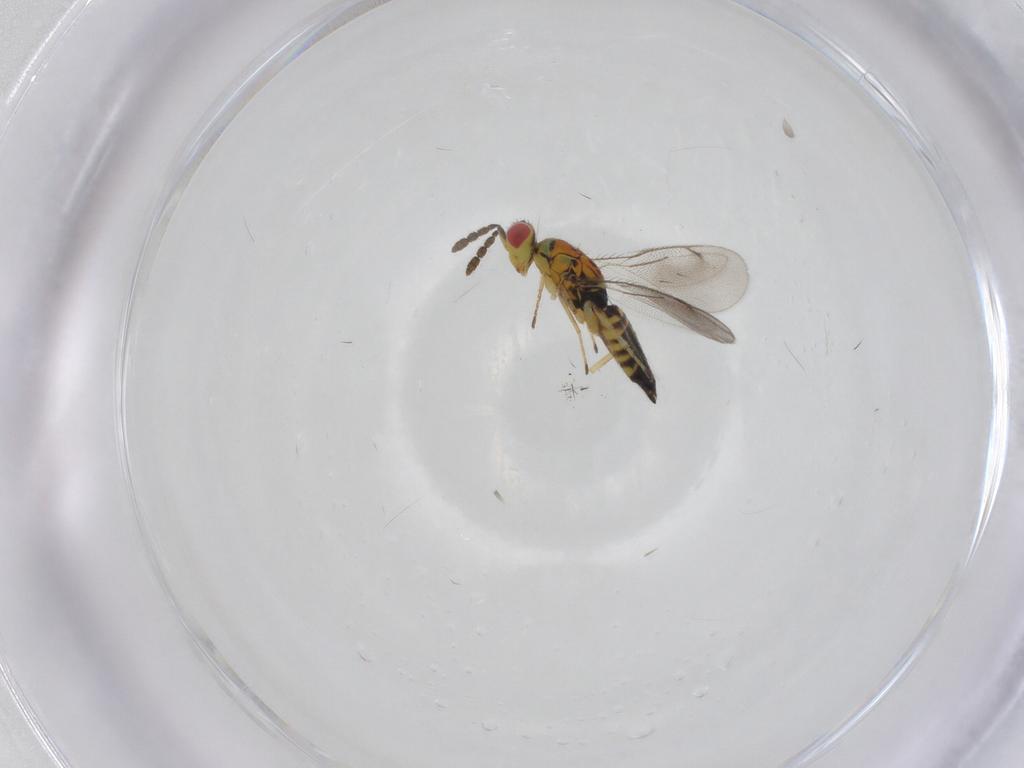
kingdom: Animalia
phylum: Arthropoda
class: Insecta
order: Hymenoptera
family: Eulophidae
